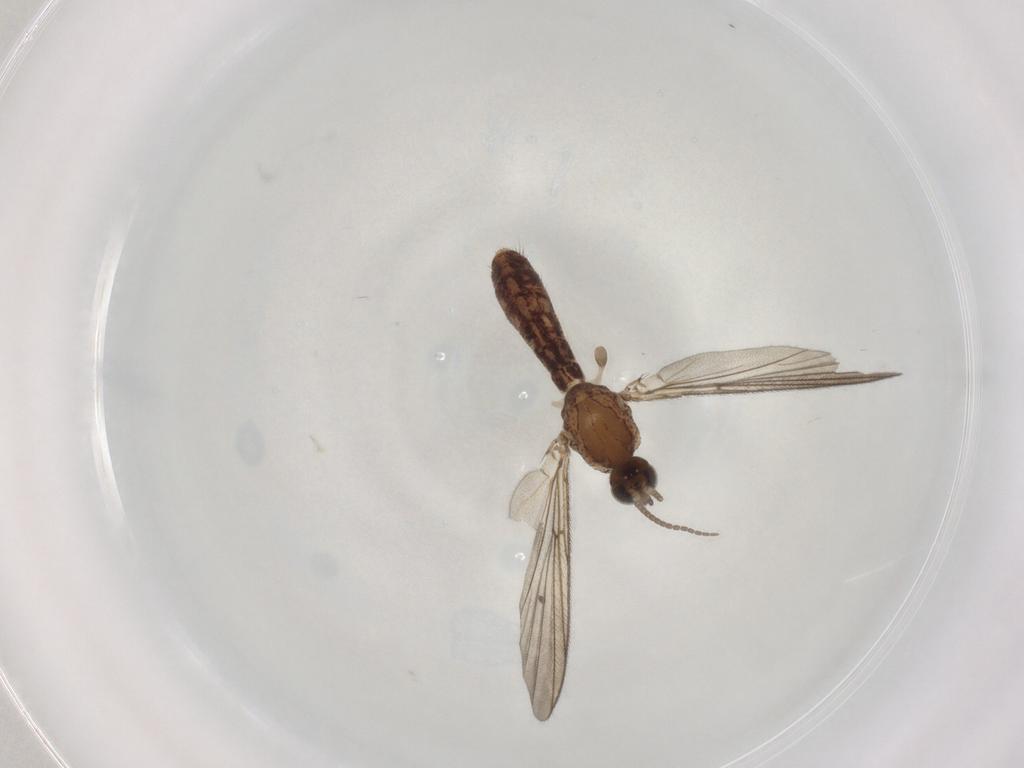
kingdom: Animalia
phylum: Arthropoda
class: Insecta
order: Diptera
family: Mycetophilidae
